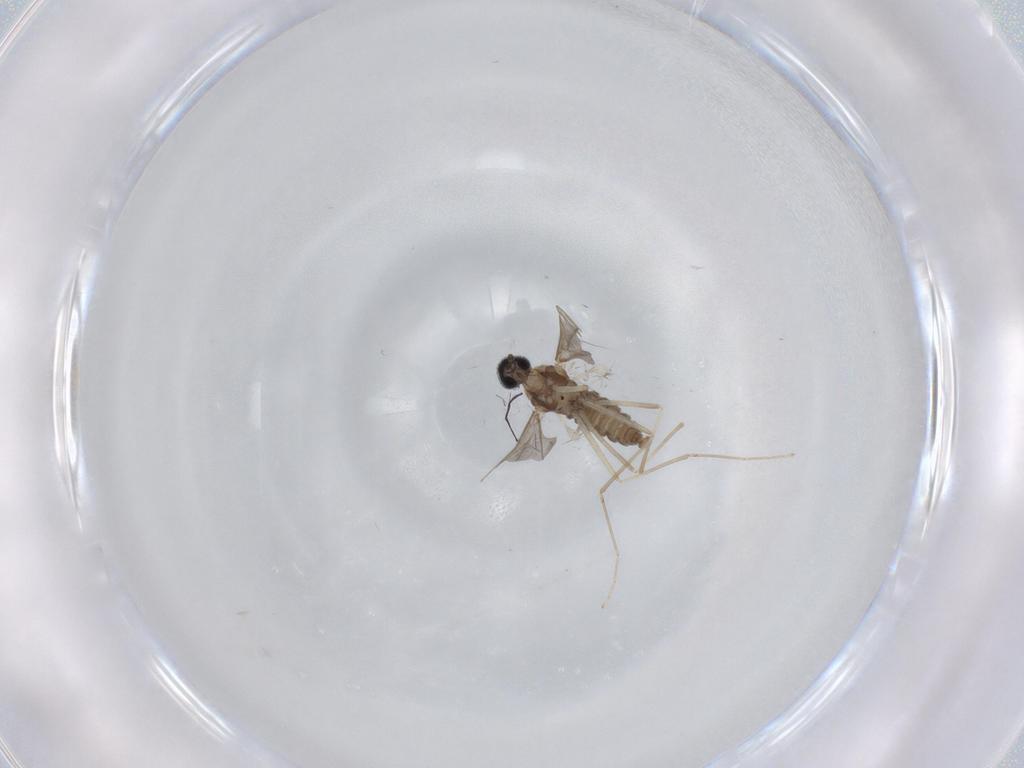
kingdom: Animalia
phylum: Arthropoda
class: Insecta
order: Diptera
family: Cecidomyiidae
